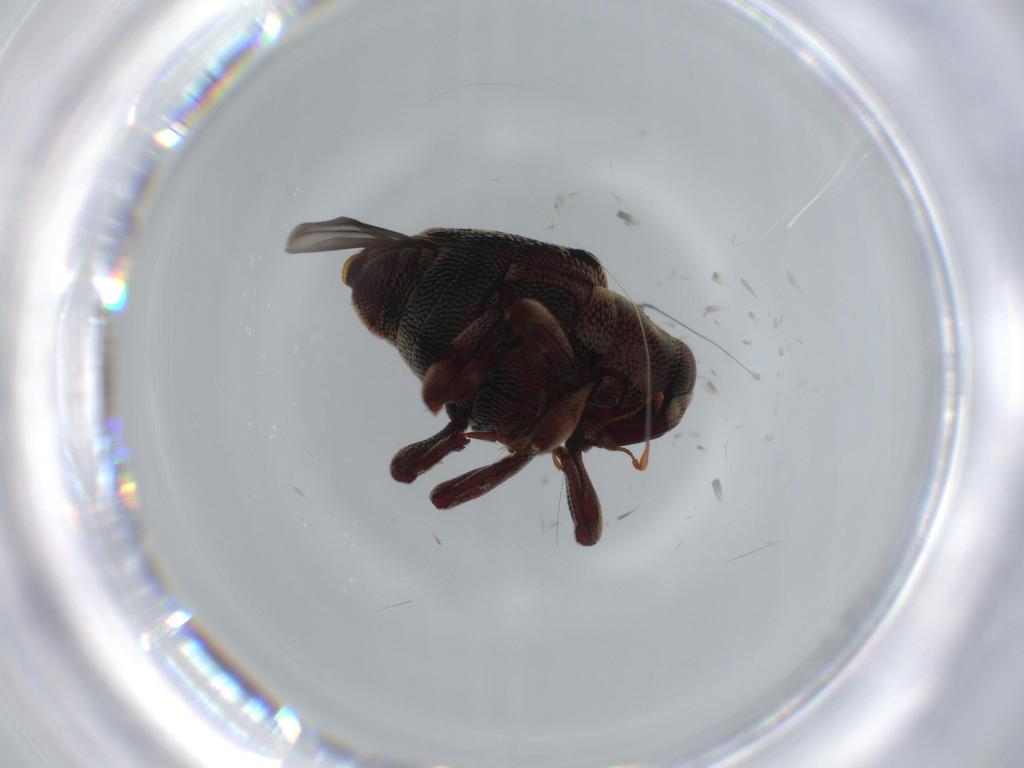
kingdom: Animalia
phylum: Arthropoda
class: Insecta
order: Coleoptera
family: Curculionidae
